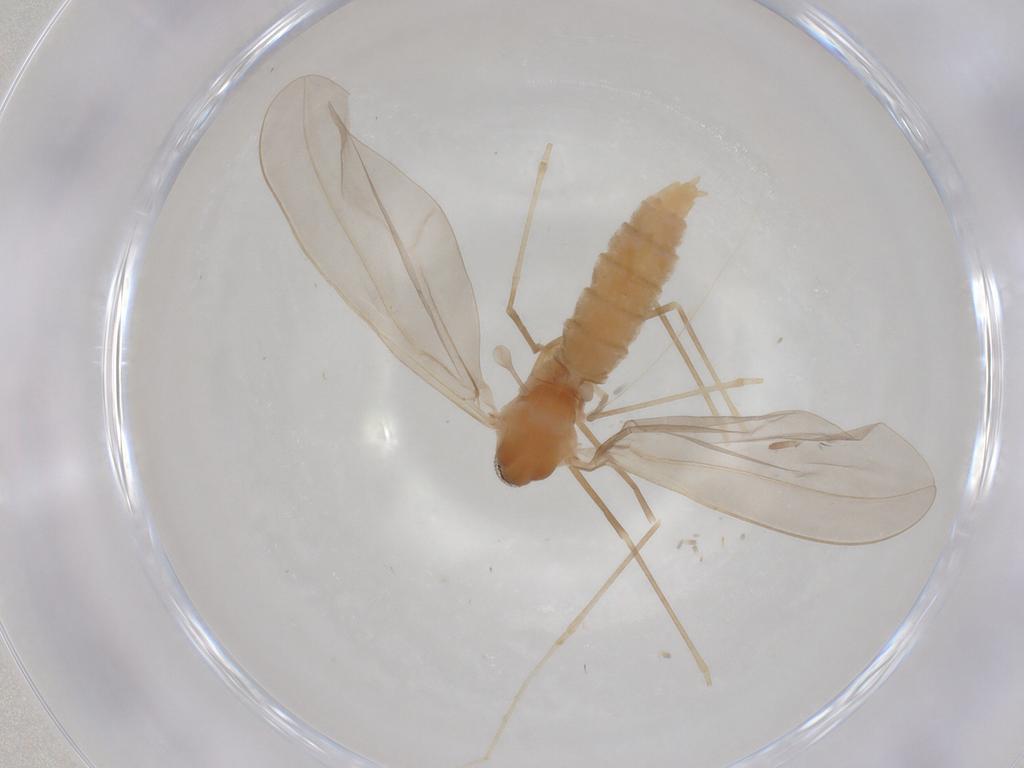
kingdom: Animalia
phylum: Arthropoda
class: Insecta
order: Diptera
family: Cecidomyiidae
